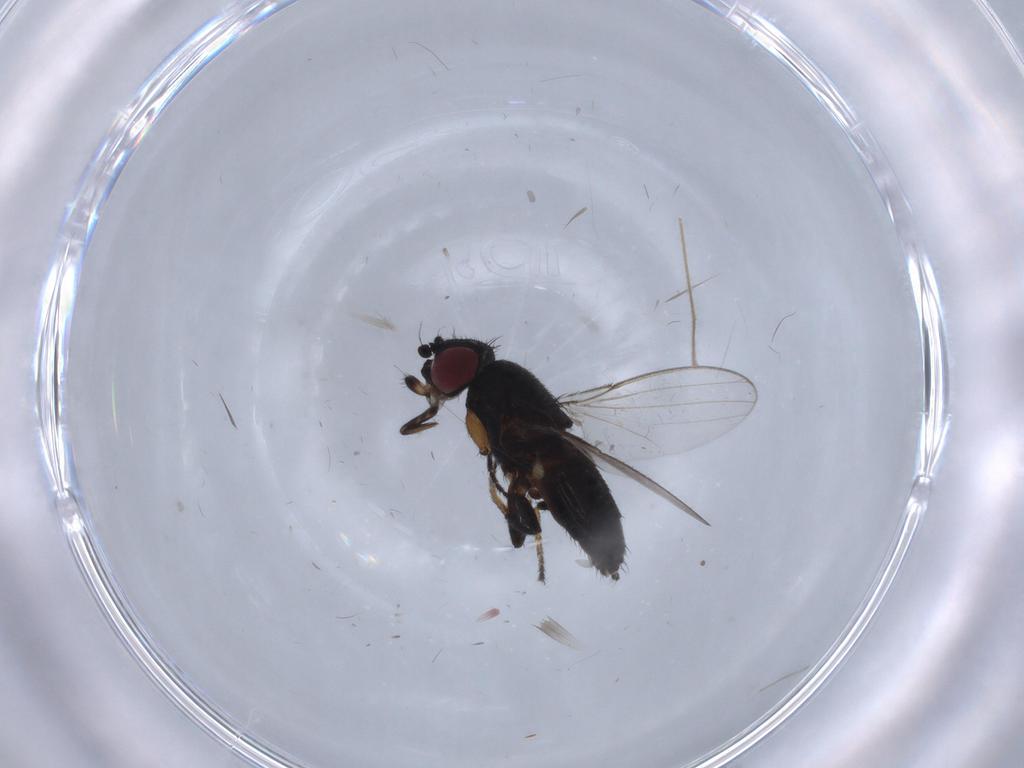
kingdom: Animalia
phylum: Arthropoda
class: Insecta
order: Diptera
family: Milichiidae
